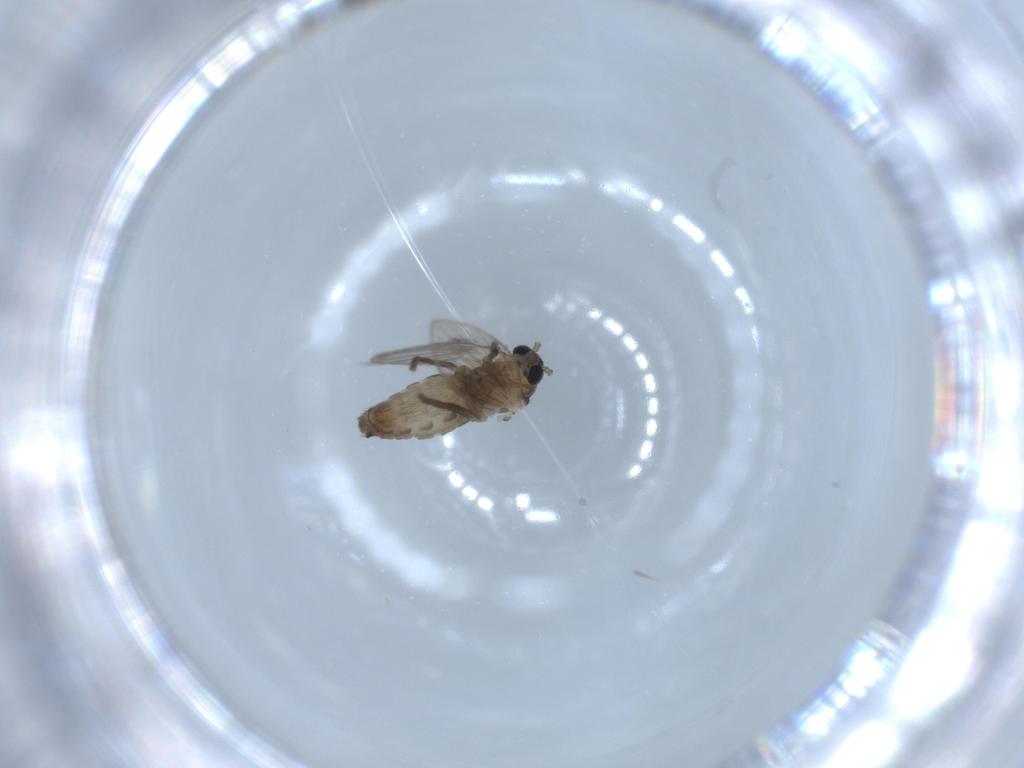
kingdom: Animalia
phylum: Arthropoda
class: Insecta
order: Diptera
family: Psychodidae
